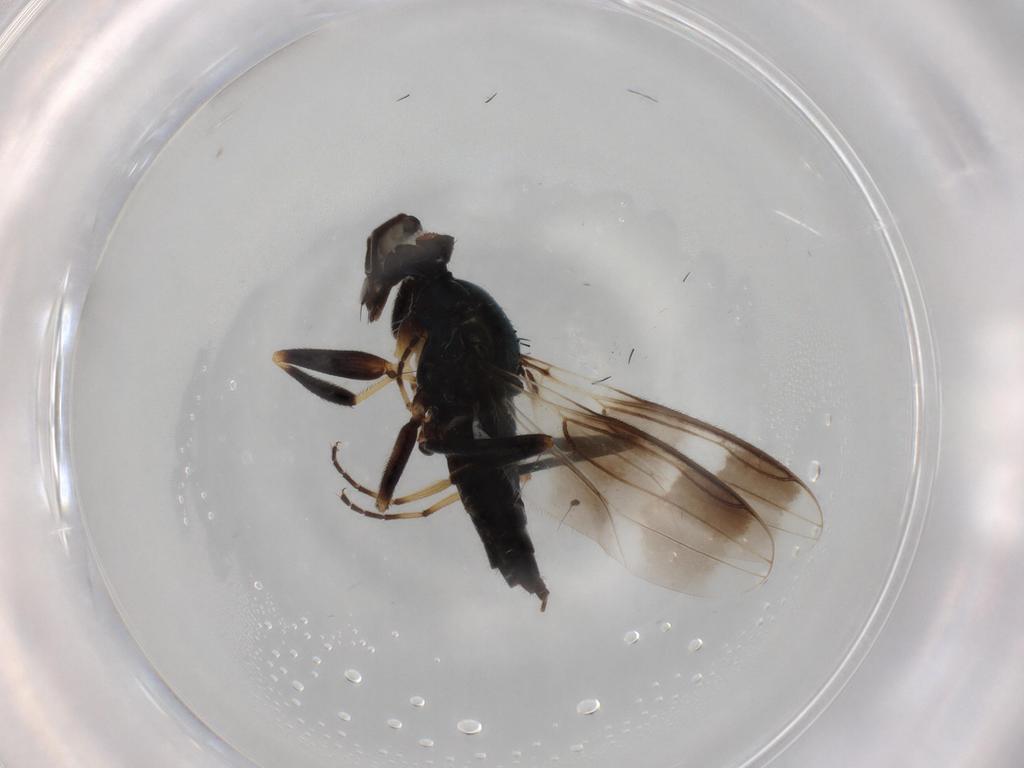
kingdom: Animalia
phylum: Arthropoda
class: Insecta
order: Diptera
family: Hybotidae
